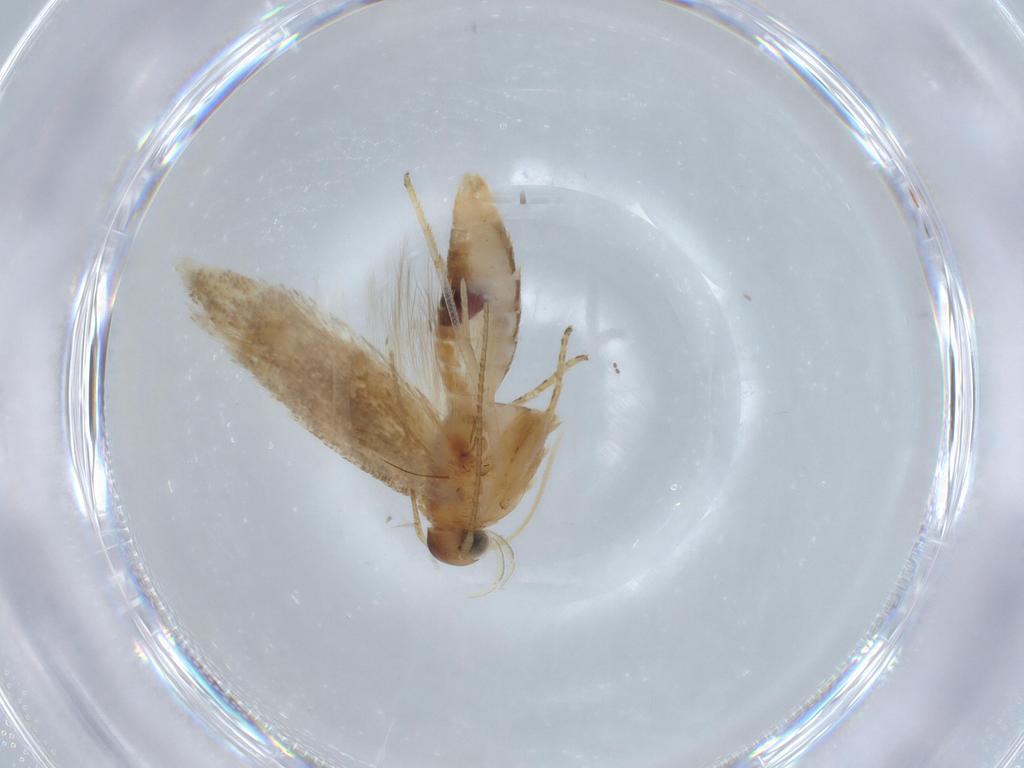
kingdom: Animalia
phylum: Arthropoda
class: Insecta
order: Lepidoptera
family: Gelechiidae
